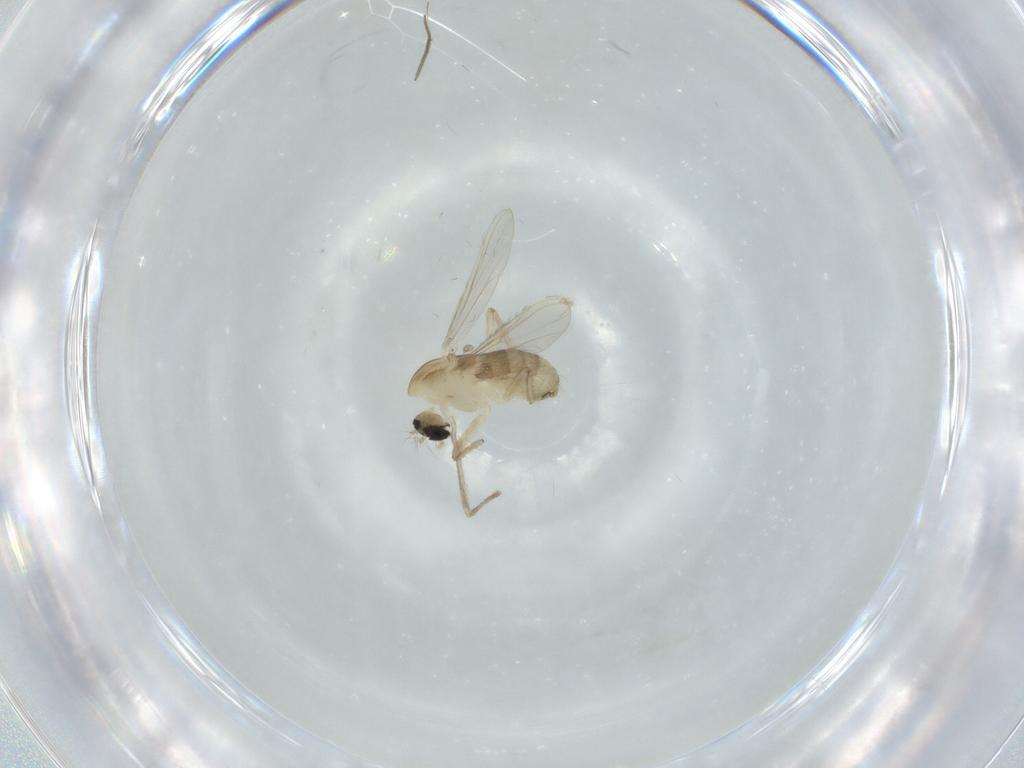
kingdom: Animalia
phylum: Arthropoda
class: Insecta
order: Diptera
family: Chironomidae
